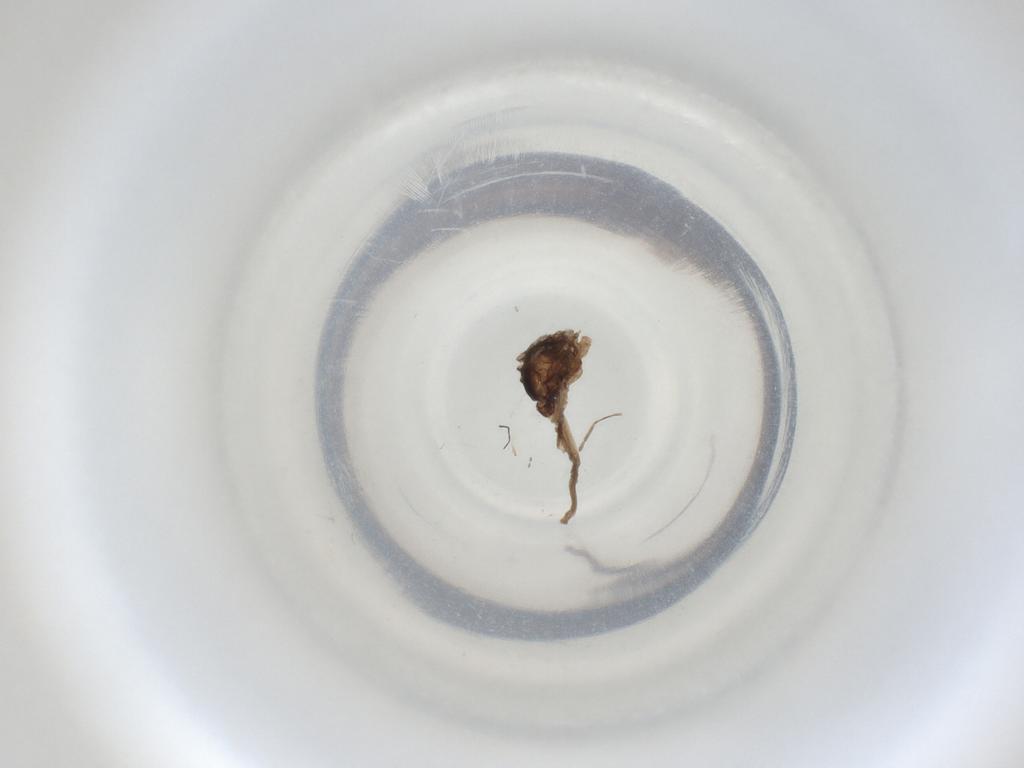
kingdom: Animalia
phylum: Arthropoda
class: Insecta
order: Diptera
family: Cecidomyiidae
